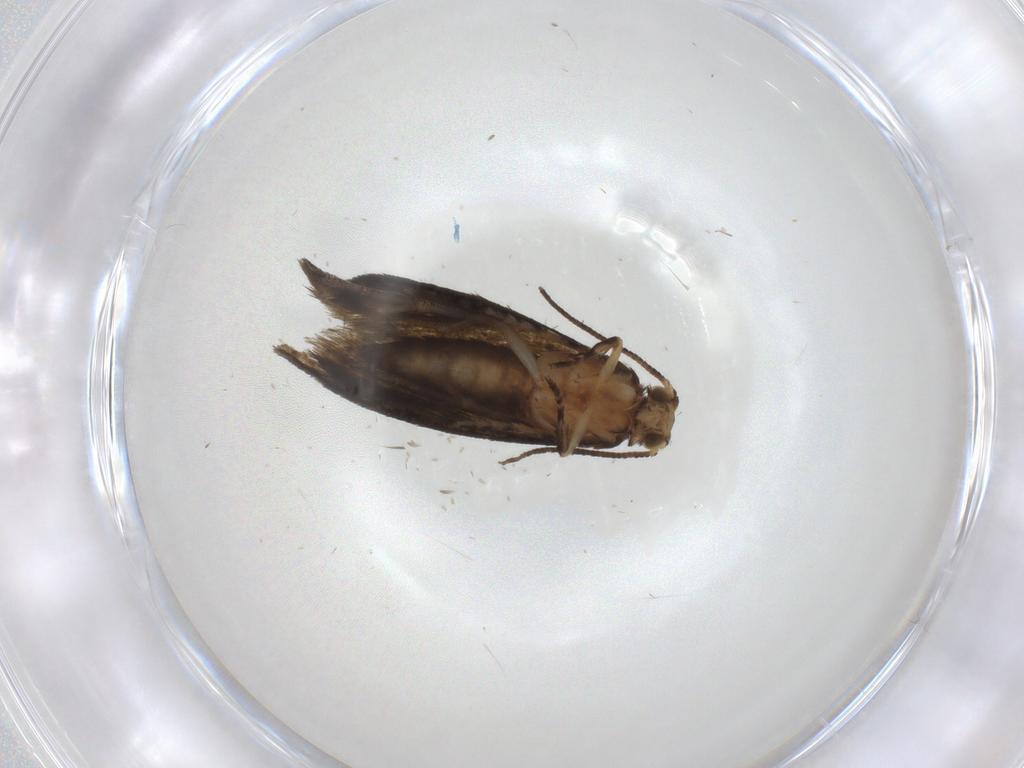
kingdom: Animalia
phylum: Arthropoda
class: Insecta
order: Lepidoptera
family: Crambidae
